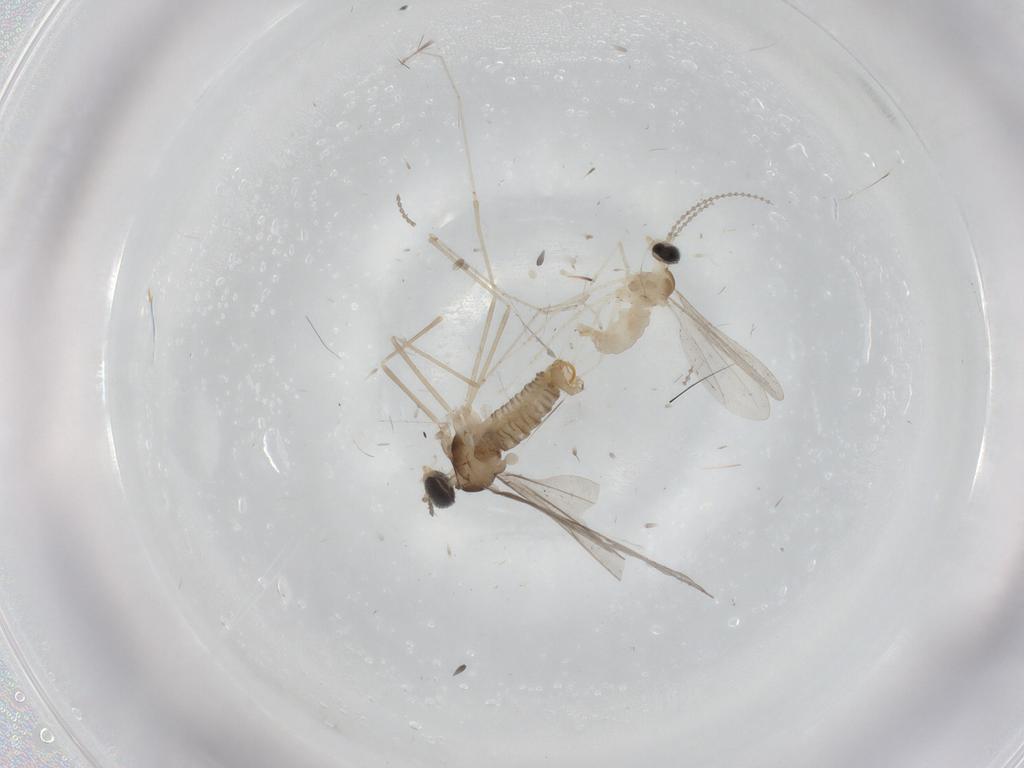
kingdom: Animalia
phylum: Arthropoda
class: Insecta
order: Diptera
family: Cecidomyiidae
